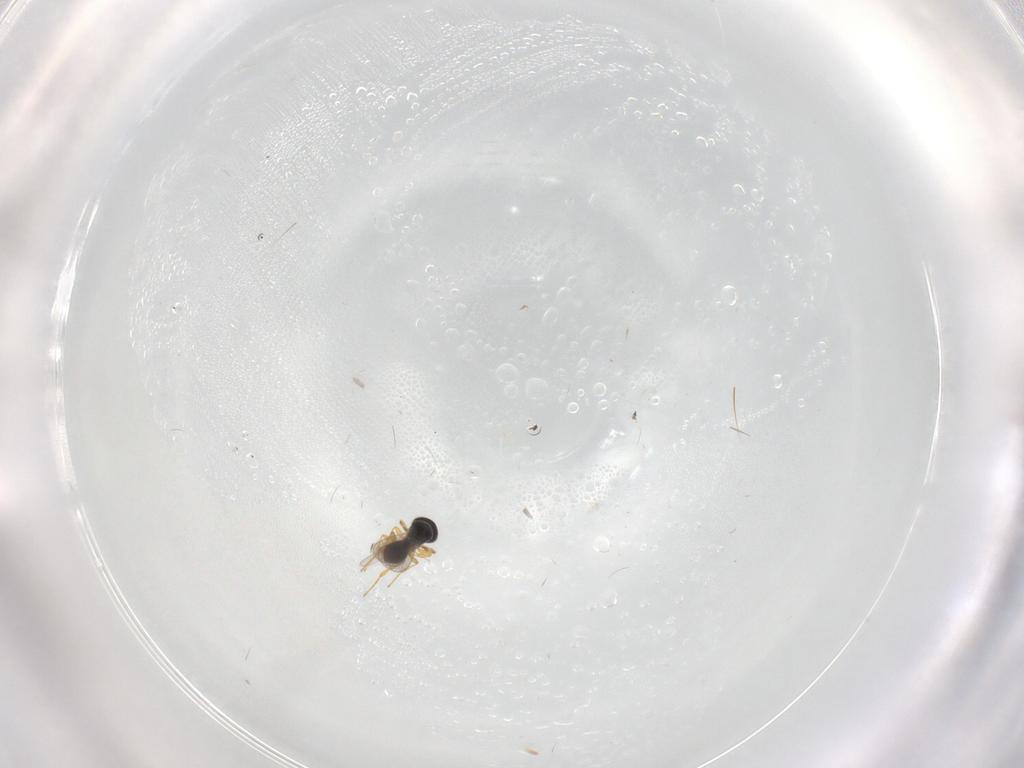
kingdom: Animalia
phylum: Arthropoda
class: Insecta
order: Hymenoptera
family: Platygastridae
